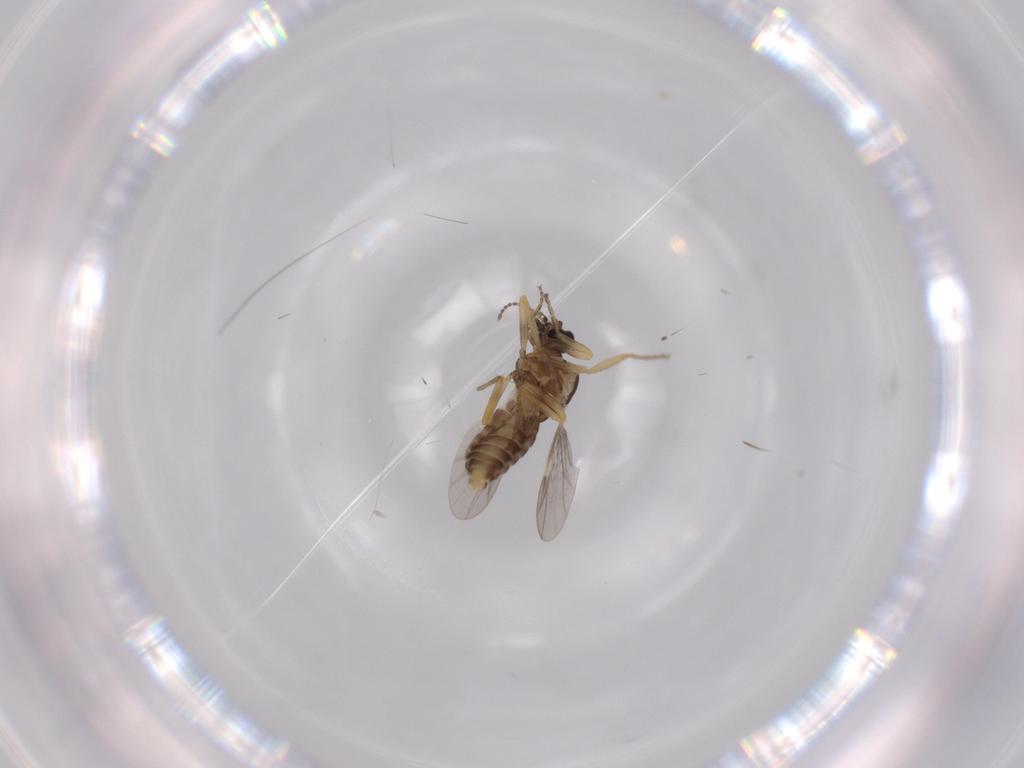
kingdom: Animalia
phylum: Arthropoda
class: Insecta
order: Diptera
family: Ceratopogonidae
